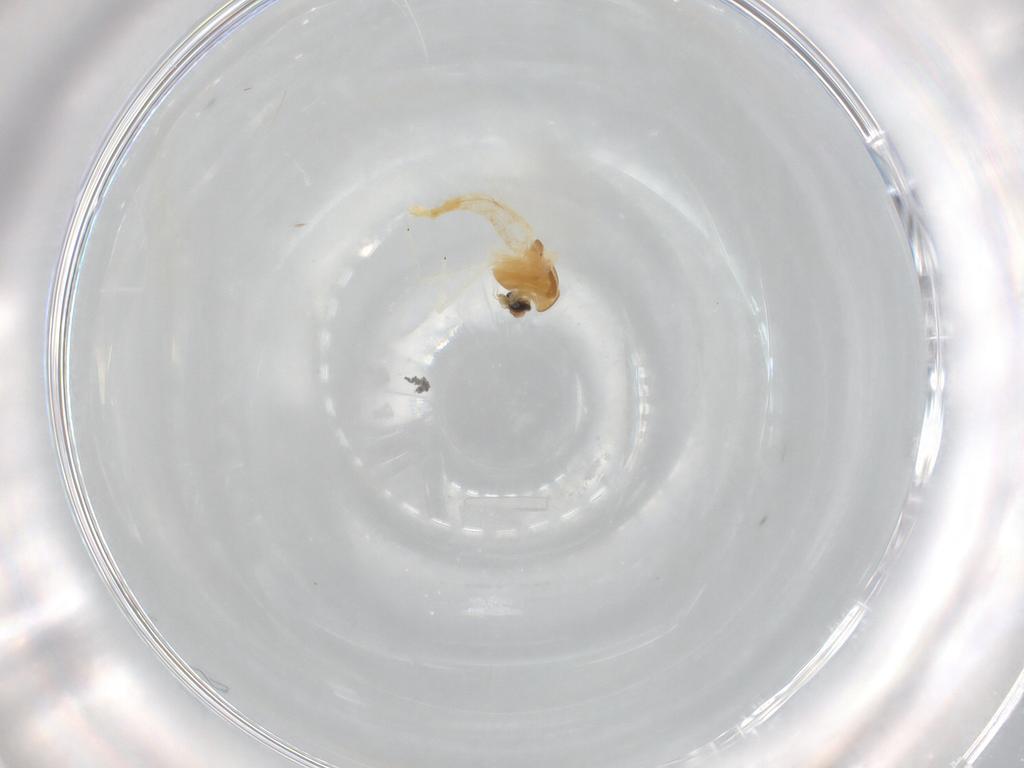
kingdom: Animalia
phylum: Arthropoda
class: Insecta
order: Diptera
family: Chironomidae
